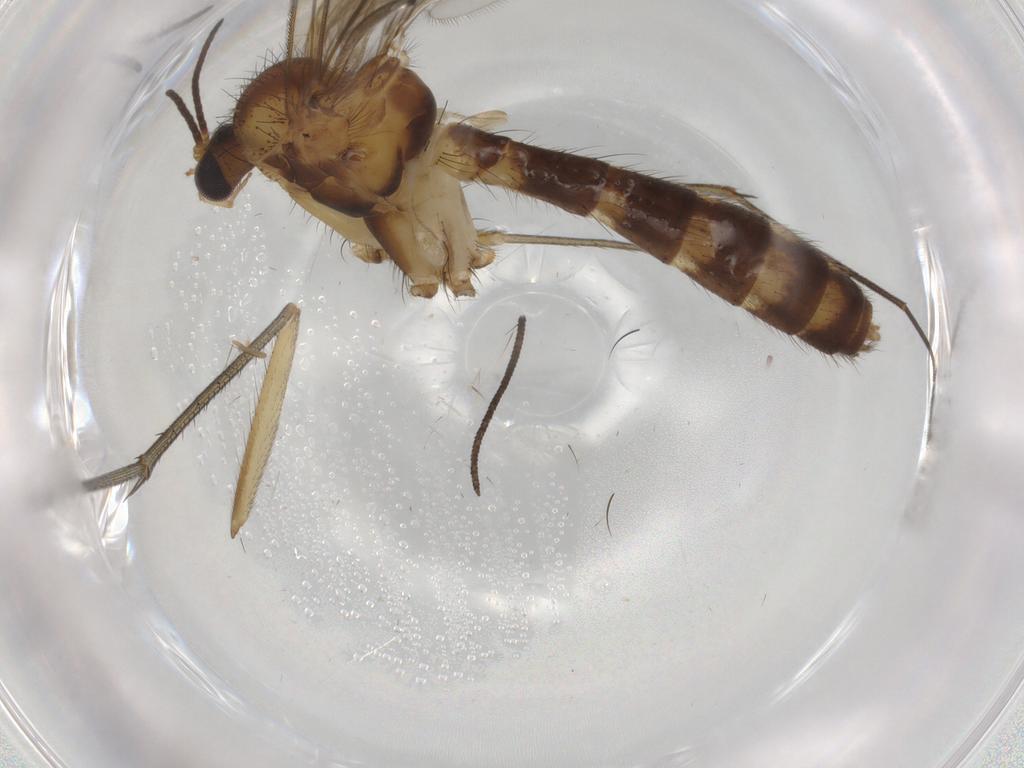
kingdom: Animalia
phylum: Arthropoda
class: Insecta
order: Diptera
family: Mycetophilidae
